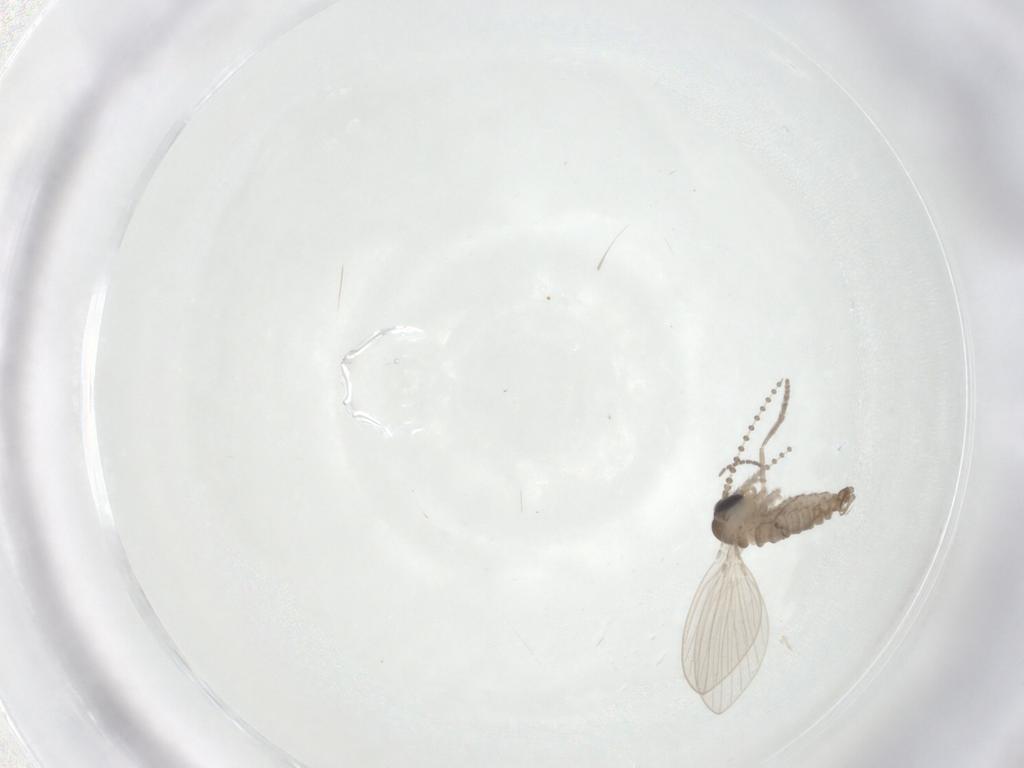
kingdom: Animalia
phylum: Arthropoda
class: Insecta
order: Diptera
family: Psychodidae
